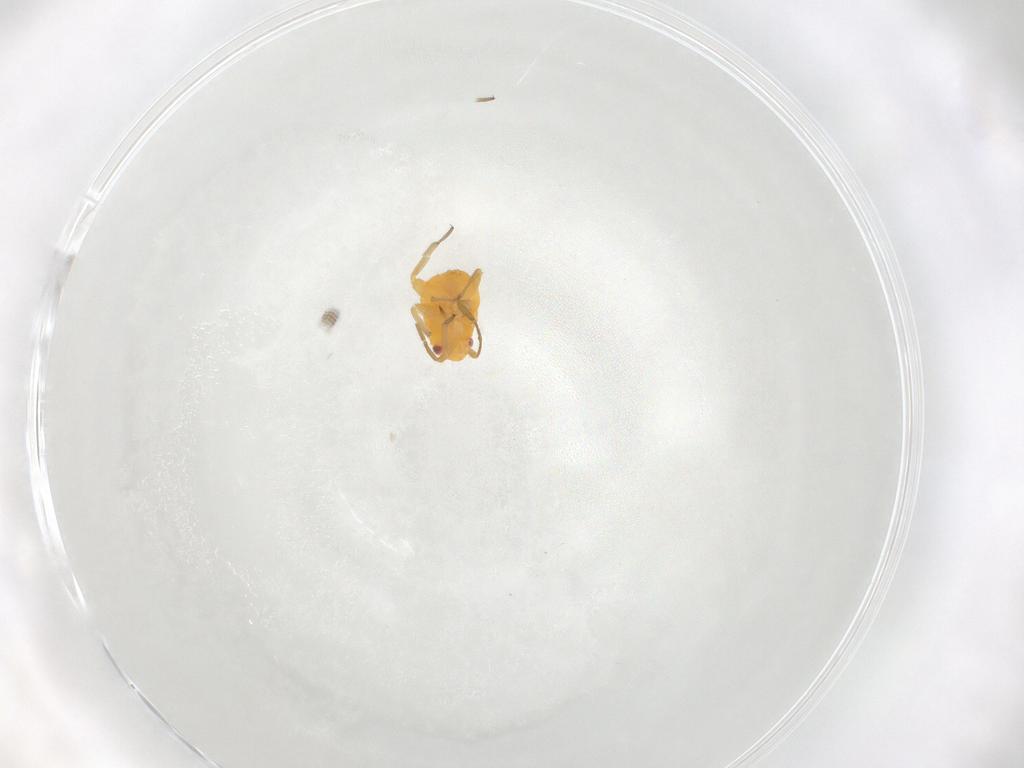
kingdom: Animalia
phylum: Arthropoda
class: Insecta
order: Hemiptera
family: Miridae
